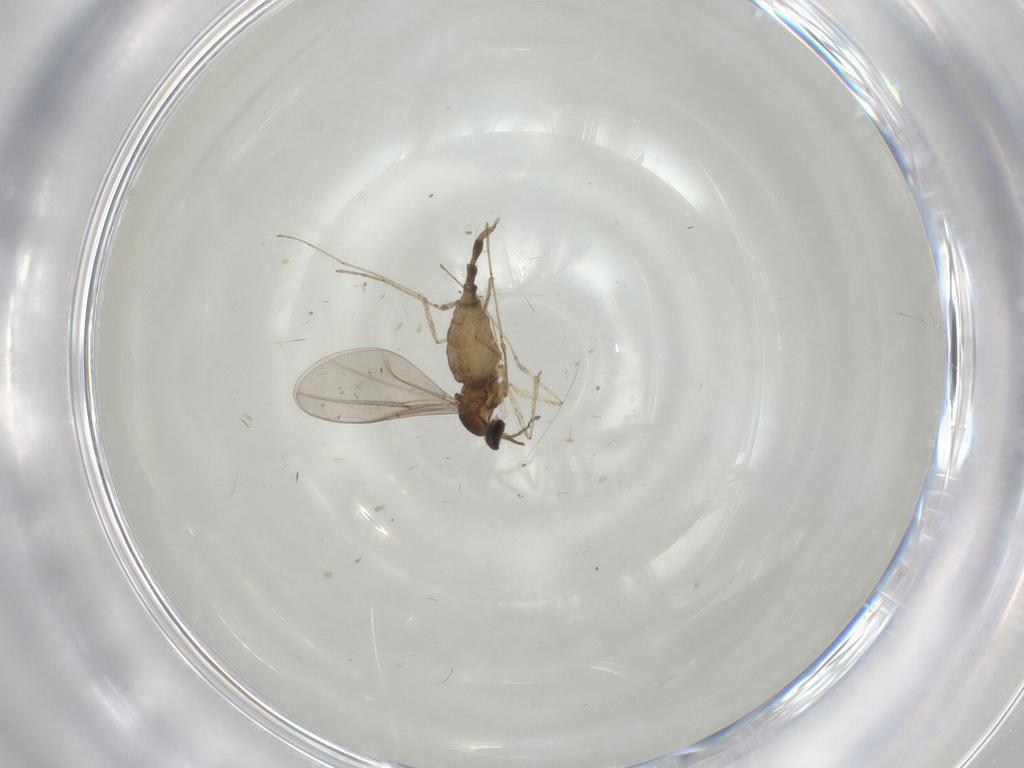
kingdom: Animalia
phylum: Arthropoda
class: Insecta
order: Diptera
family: Cecidomyiidae
